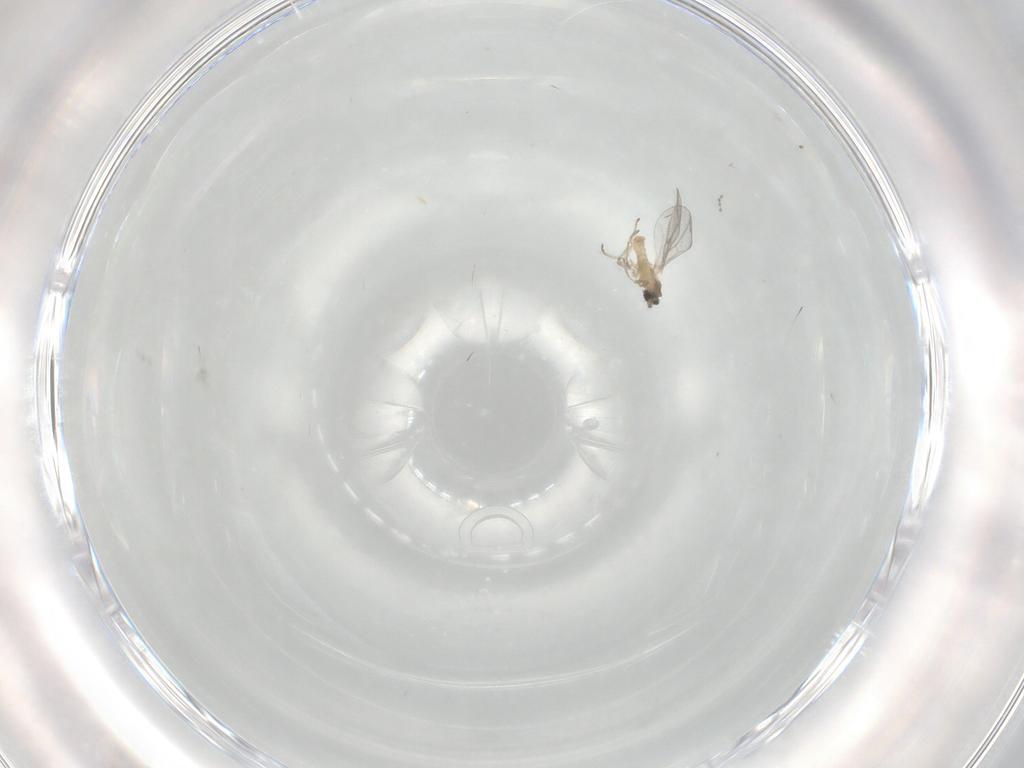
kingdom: Animalia
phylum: Arthropoda
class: Insecta
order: Diptera
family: Cecidomyiidae
